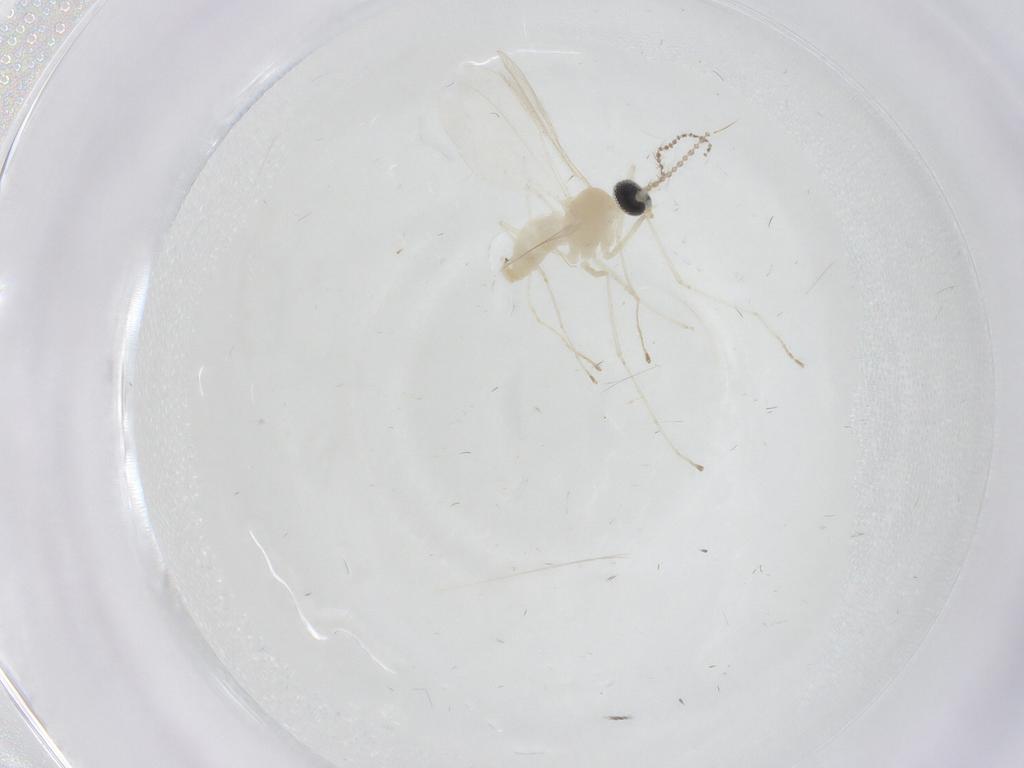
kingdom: Animalia
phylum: Arthropoda
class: Insecta
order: Diptera
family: Cecidomyiidae
